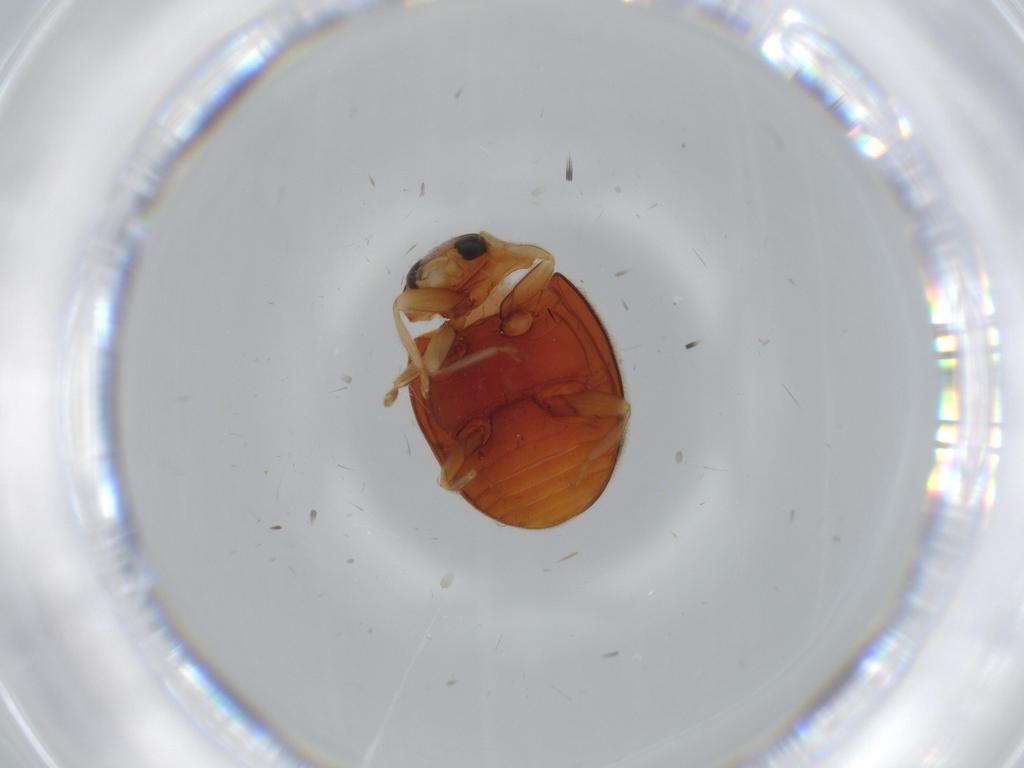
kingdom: Animalia
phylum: Arthropoda
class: Insecta
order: Coleoptera
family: Coccinellidae
